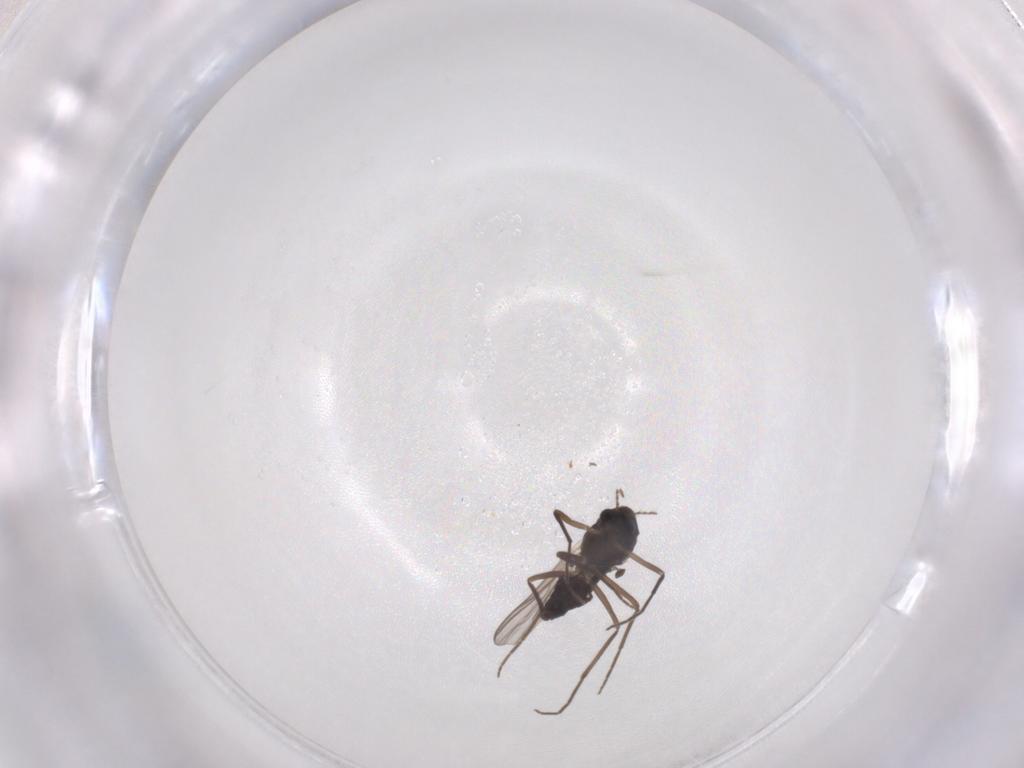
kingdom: Animalia
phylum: Arthropoda
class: Insecta
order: Diptera
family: Chironomidae
